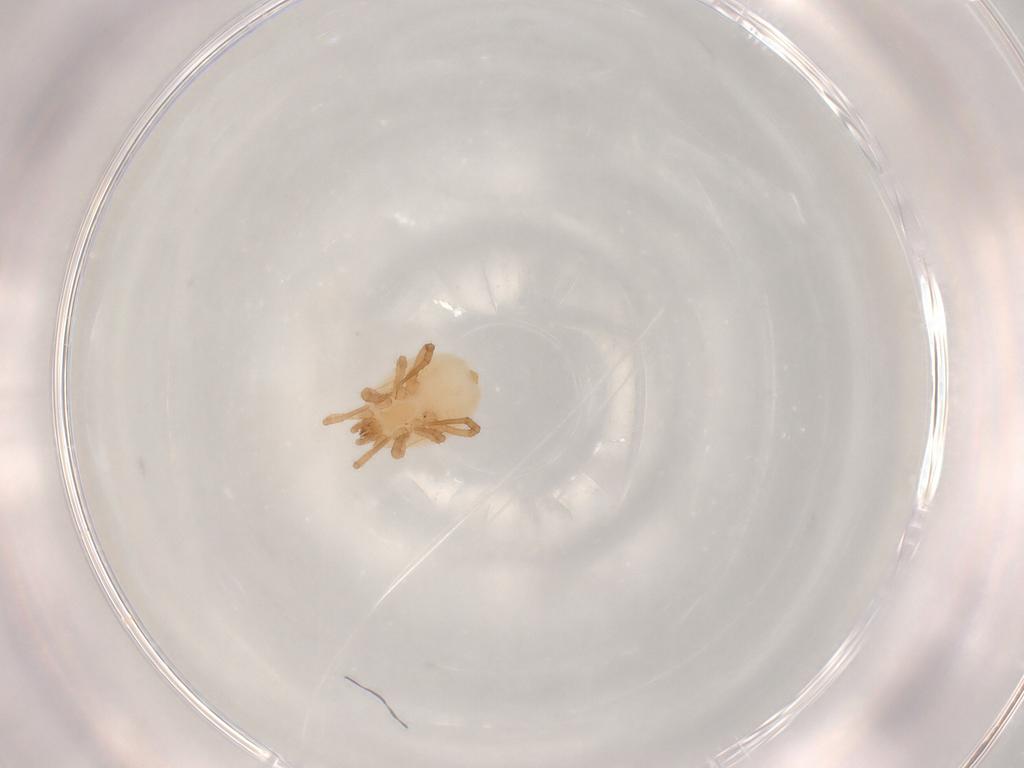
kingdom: Animalia
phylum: Arthropoda
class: Arachnida
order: Mesostigmata
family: Parasitidae
